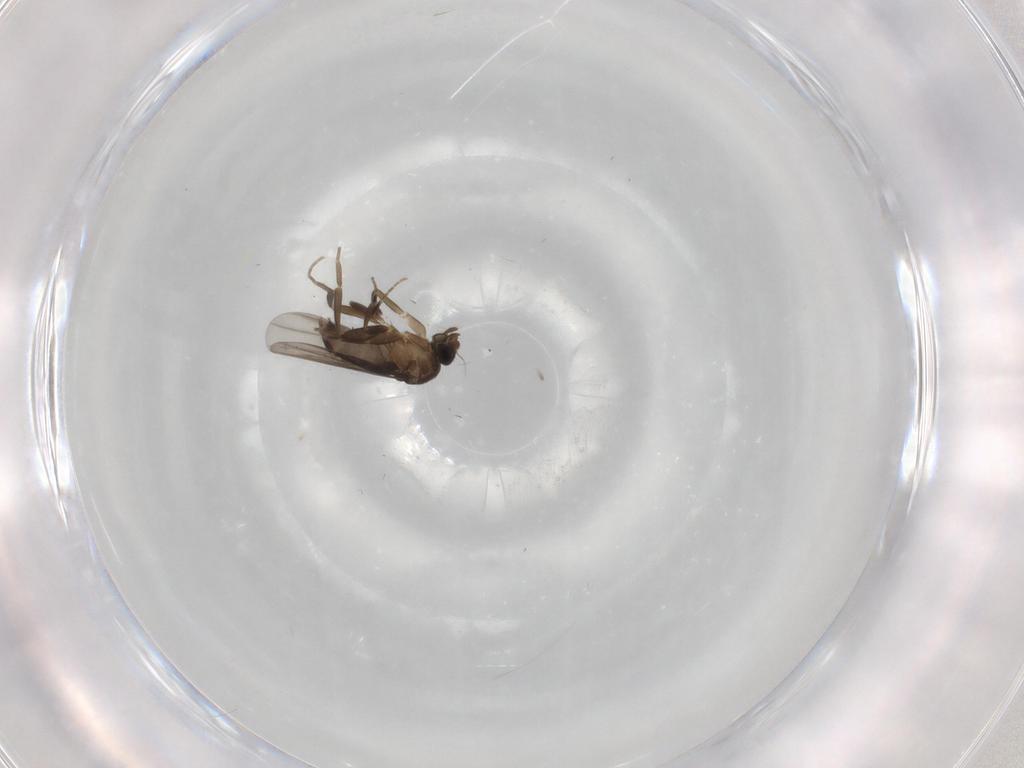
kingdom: Animalia
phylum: Arthropoda
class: Insecta
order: Diptera
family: Phoridae
